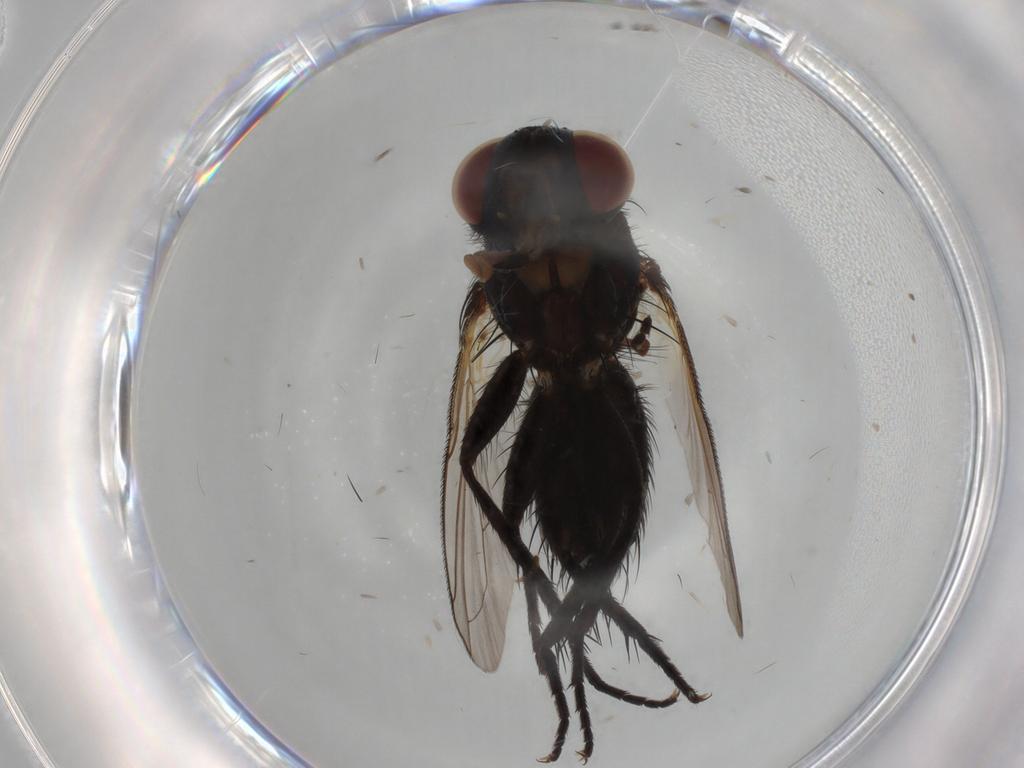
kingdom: Animalia
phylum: Arthropoda
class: Insecta
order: Diptera
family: Tachinidae
